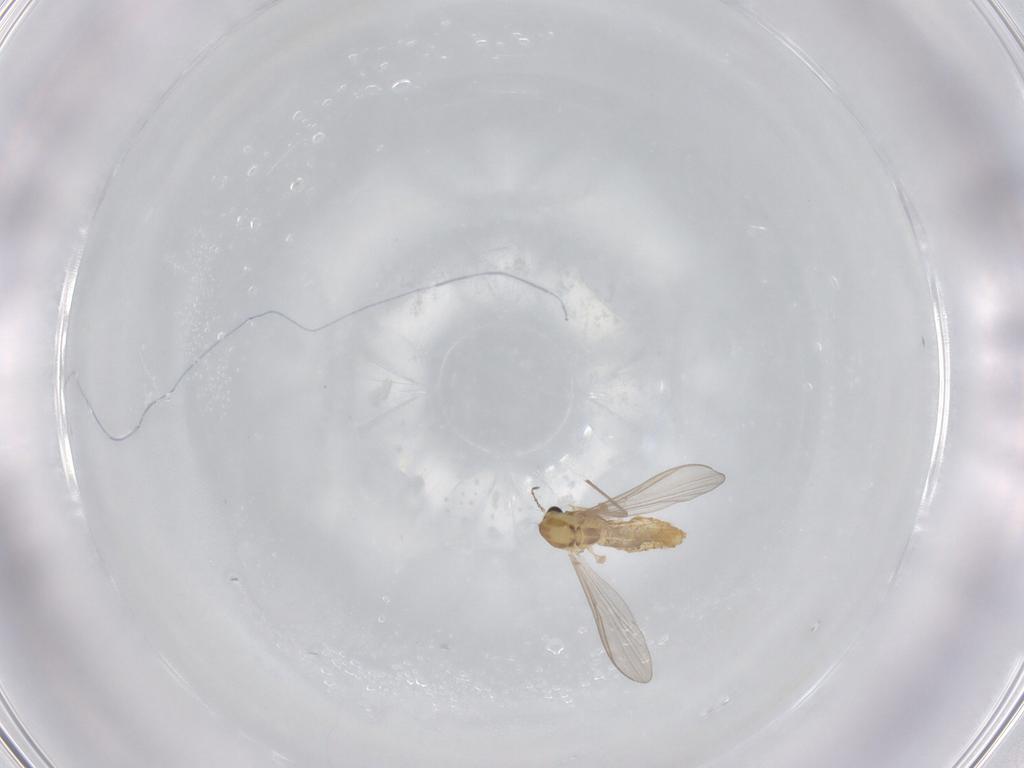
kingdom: Animalia
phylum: Arthropoda
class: Insecta
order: Diptera
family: Chironomidae
